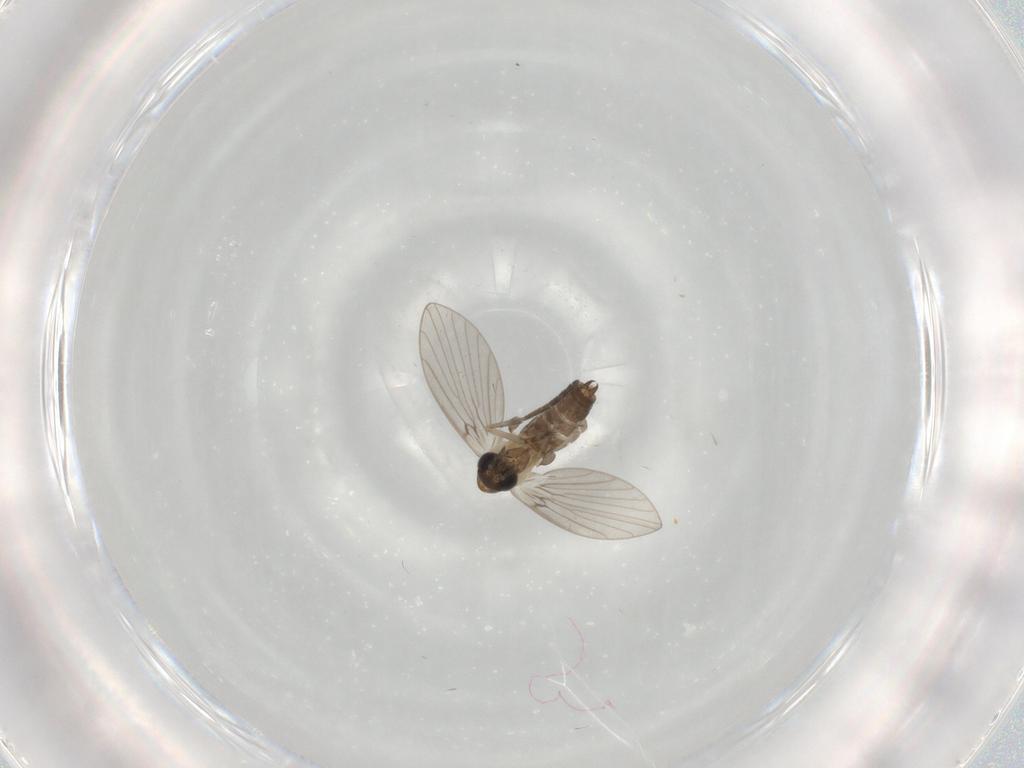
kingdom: Animalia
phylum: Arthropoda
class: Insecta
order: Diptera
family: Psychodidae
